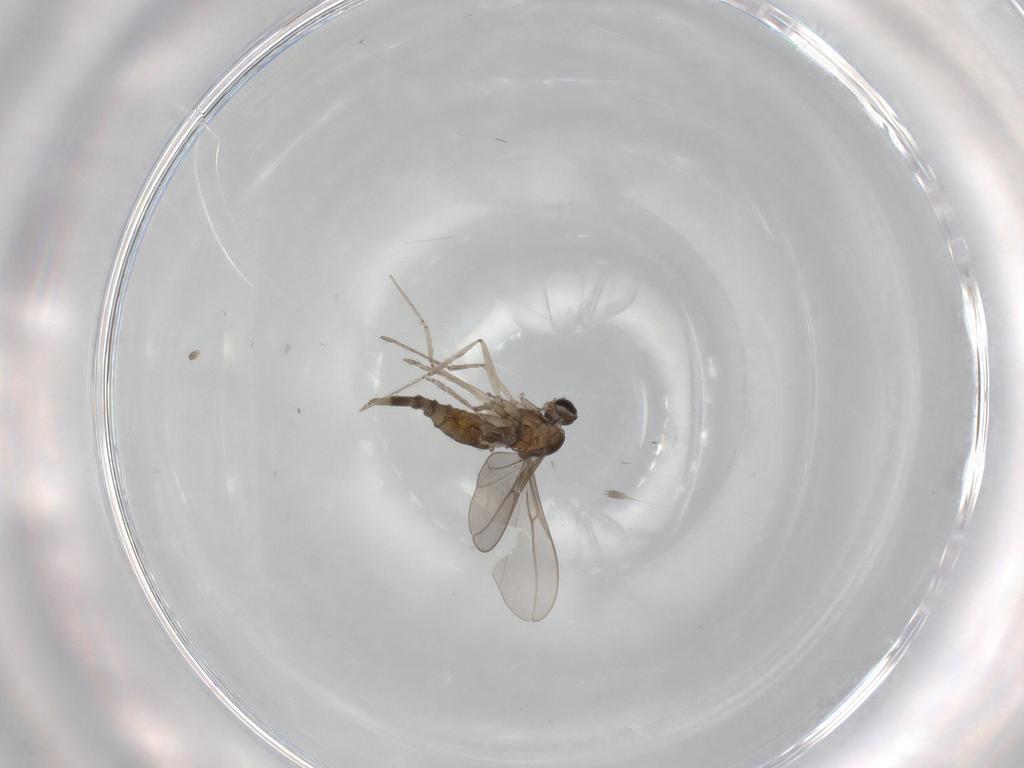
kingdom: Animalia
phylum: Arthropoda
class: Insecta
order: Diptera
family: Cecidomyiidae
